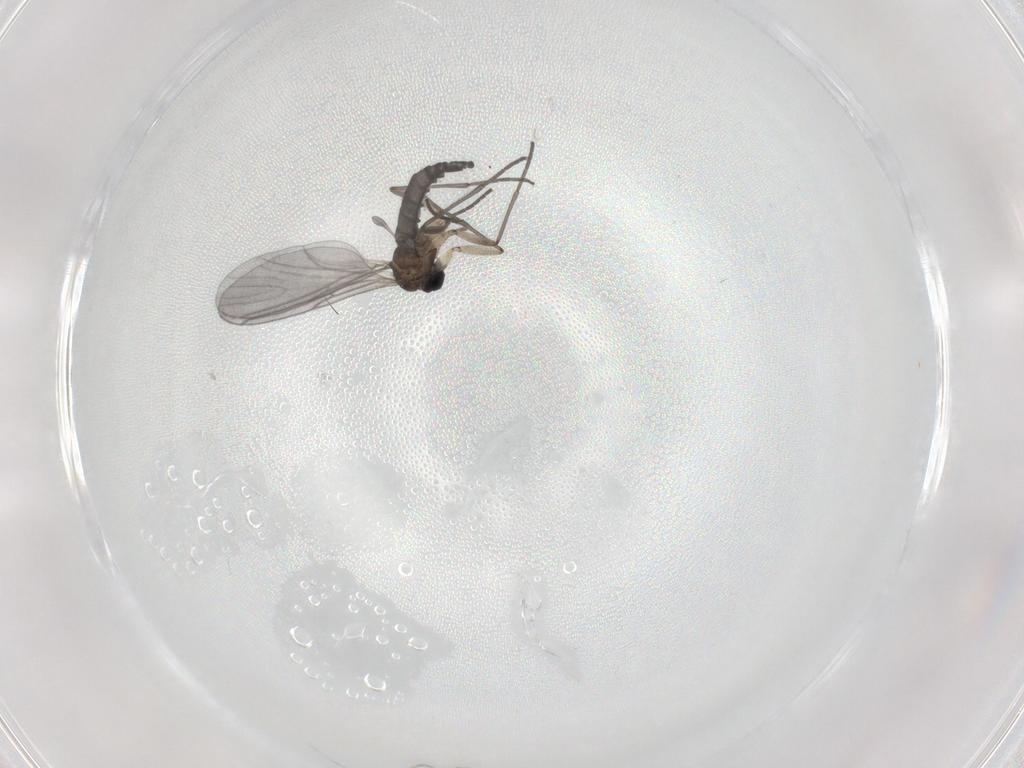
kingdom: Animalia
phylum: Arthropoda
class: Insecta
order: Diptera
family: Sciaridae
